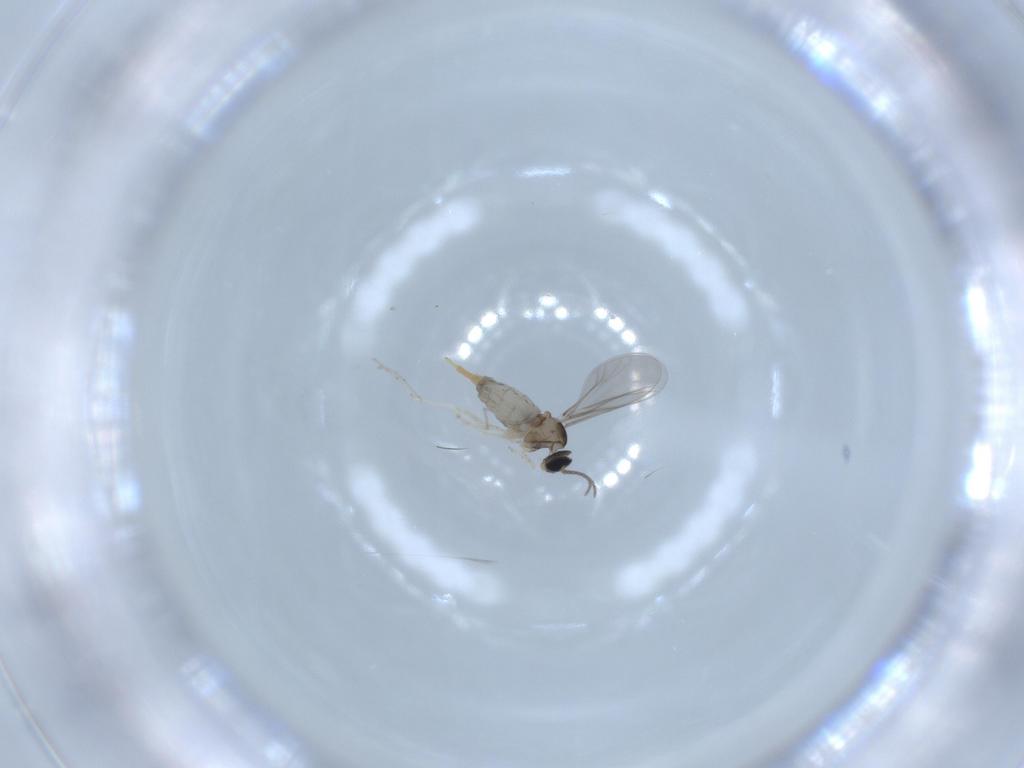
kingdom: Animalia
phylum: Arthropoda
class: Insecta
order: Diptera
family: Cecidomyiidae
